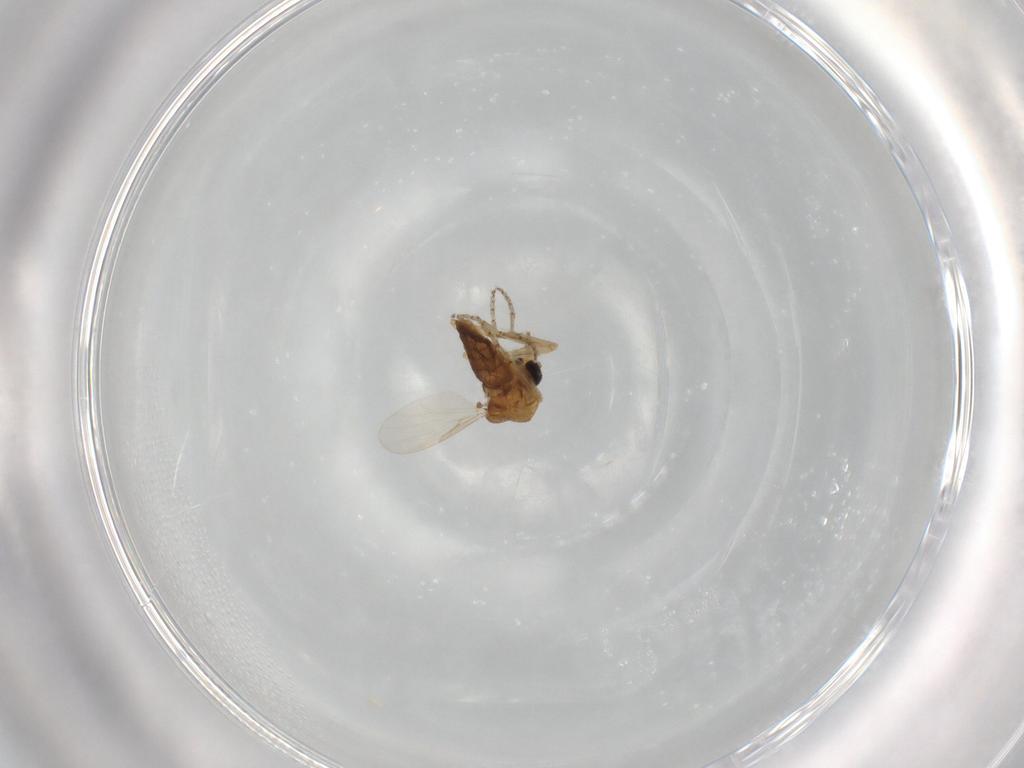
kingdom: Animalia
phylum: Arthropoda
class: Insecta
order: Diptera
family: Ceratopogonidae
